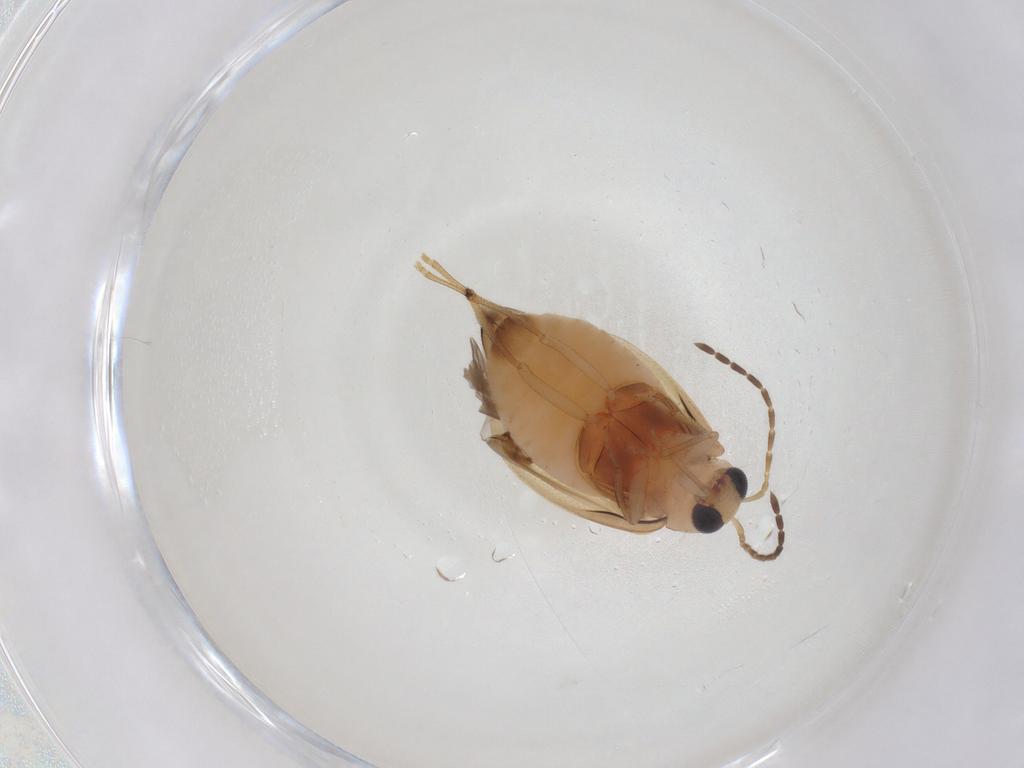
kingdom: Animalia
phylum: Arthropoda
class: Insecta
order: Coleoptera
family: Chrysomelidae
